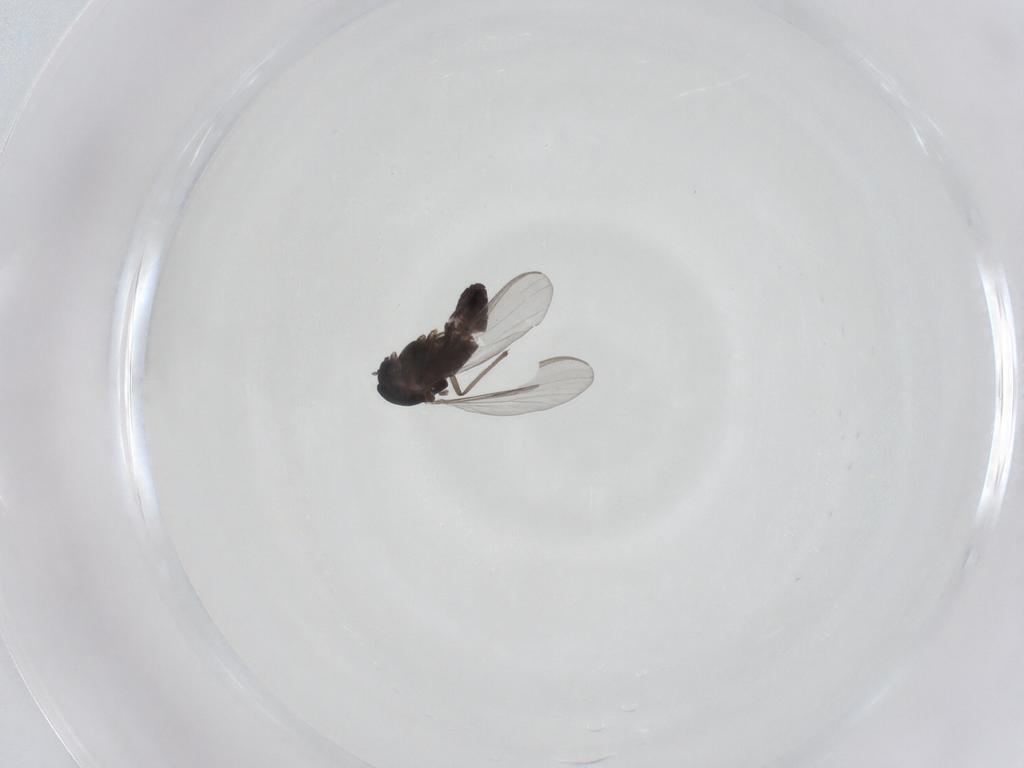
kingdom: Animalia
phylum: Arthropoda
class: Insecta
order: Diptera
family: Chironomidae
